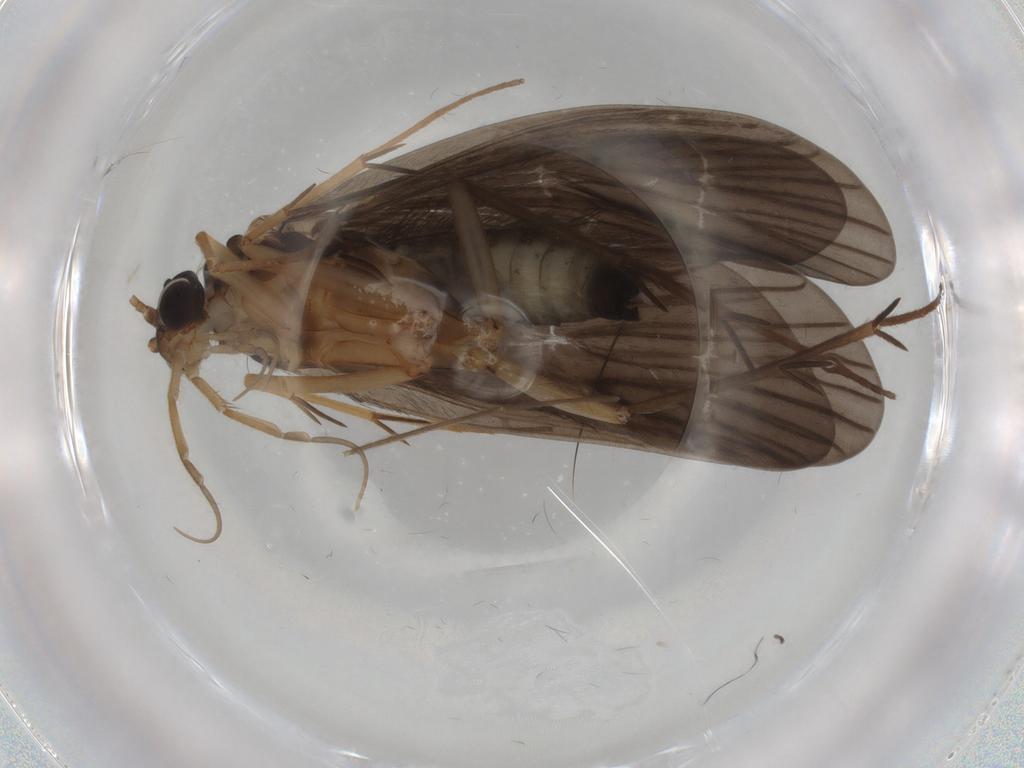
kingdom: Animalia
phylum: Arthropoda
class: Insecta
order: Trichoptera
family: Philopotamidae
